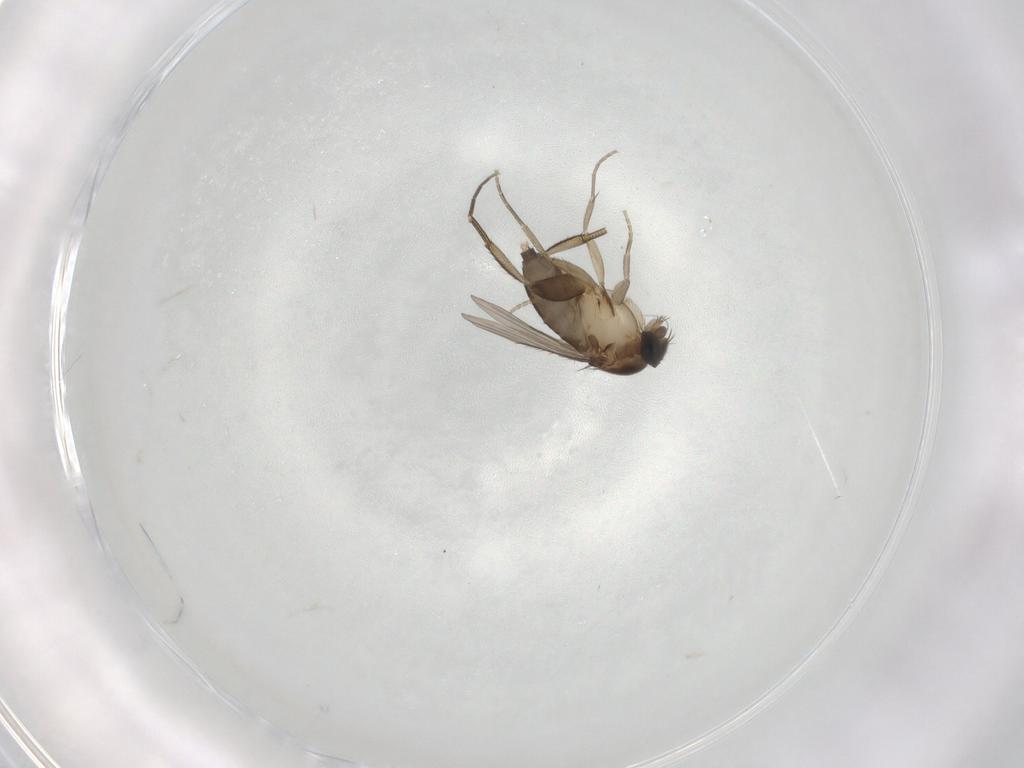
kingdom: Animalia
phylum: Arthropoda
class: Insecta
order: Diptera
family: Phoridae
